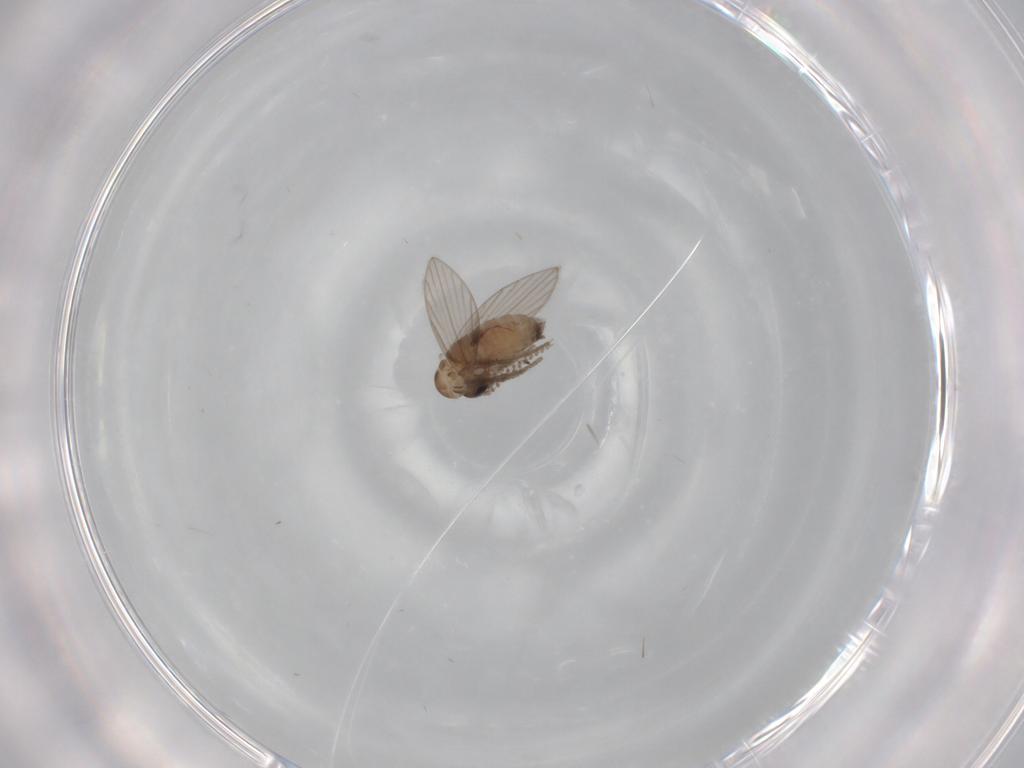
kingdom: Animalia
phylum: Arthropoda
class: Insecta
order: Diptera
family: Psychodidae
